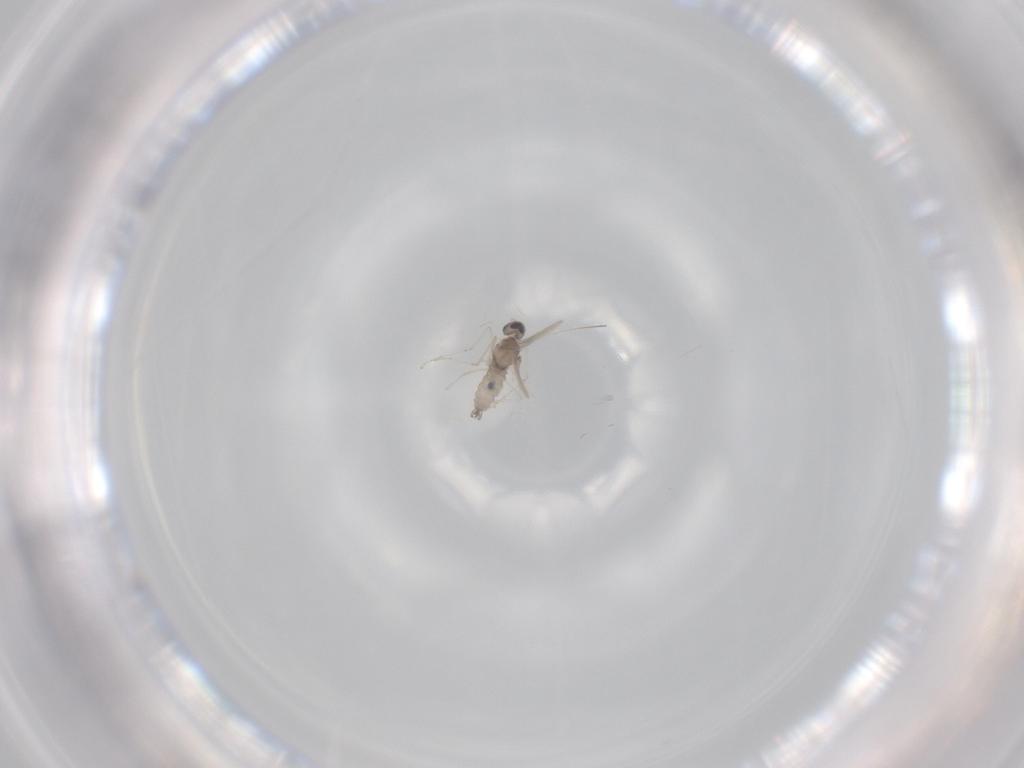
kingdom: Animalia
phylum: Arthropoda
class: Insecta
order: Diptera
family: Cecidomyiidae
